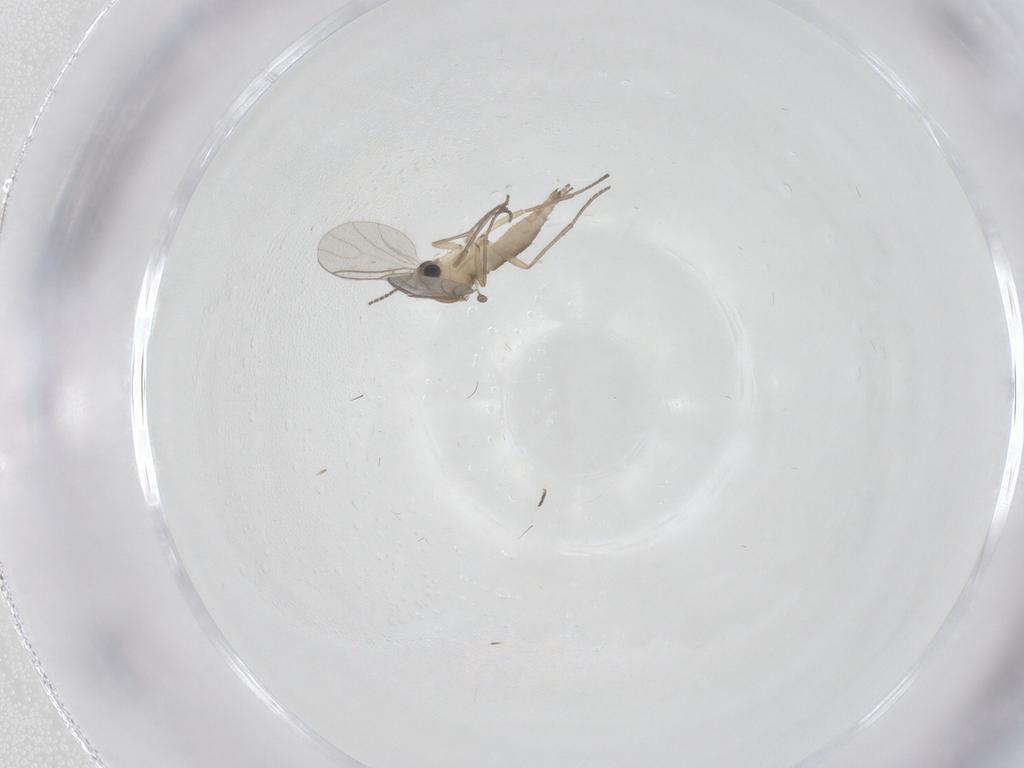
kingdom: Animalia
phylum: Arthropoda
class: Insecta
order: Diptera
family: Sciaridae
